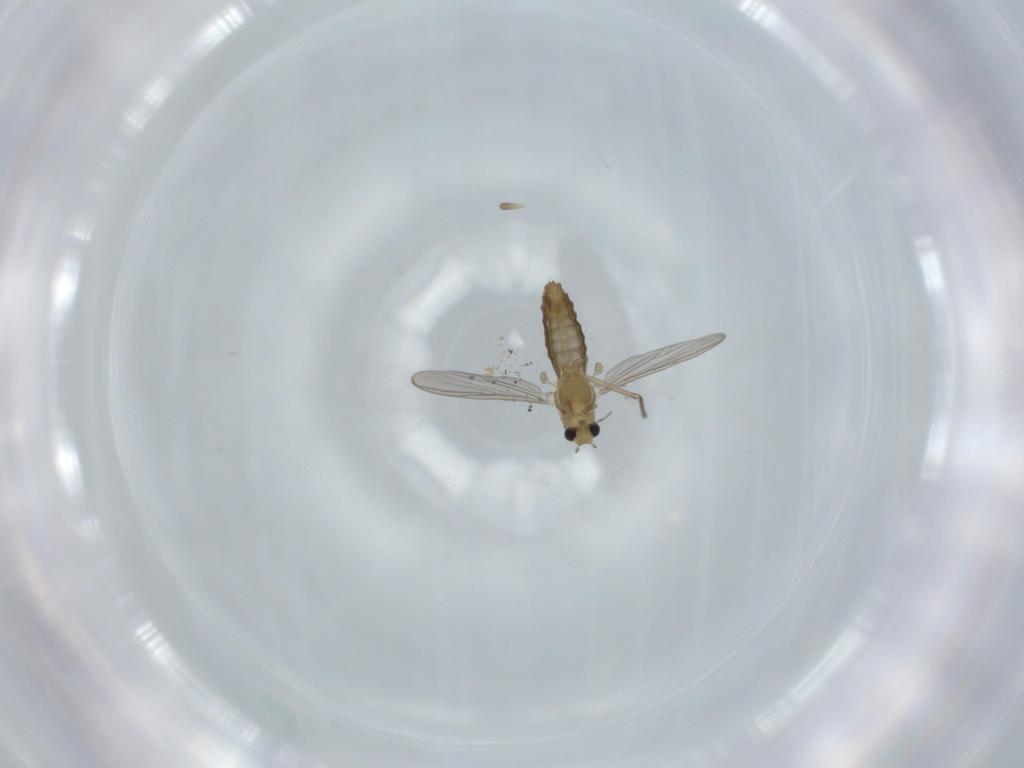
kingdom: Animalia
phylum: Arthropoda
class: Insecta
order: Diptera
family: Chironomidae
